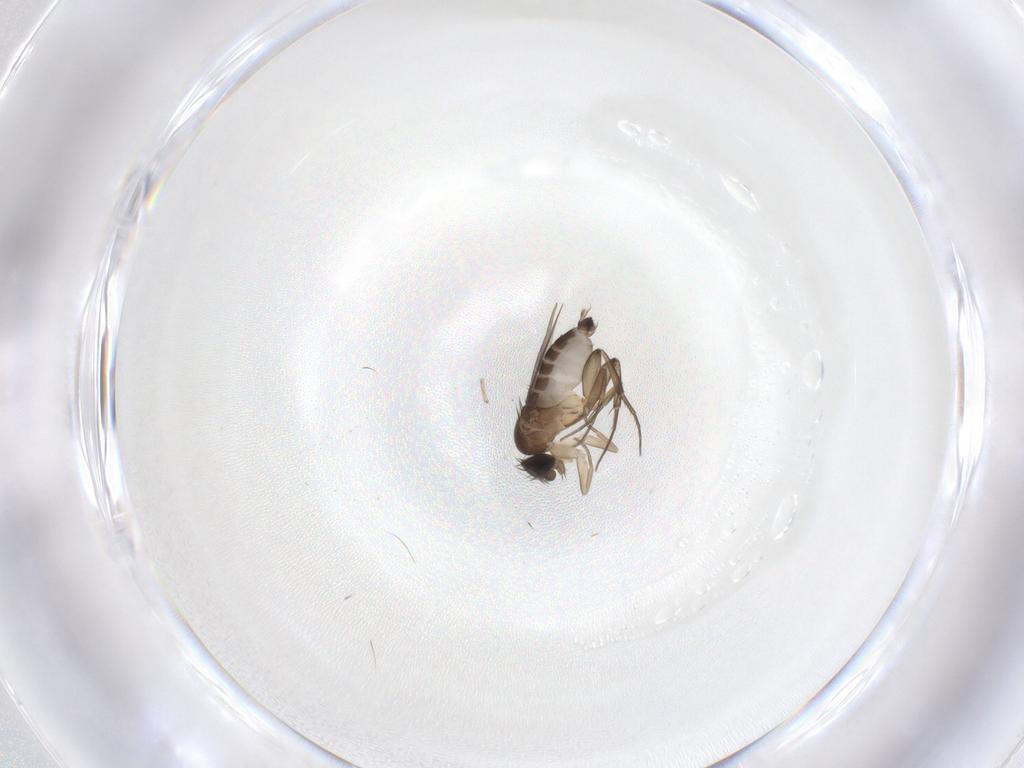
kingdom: Animalia
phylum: Arthropoda
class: Insecta
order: Diptera
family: Phoridae
